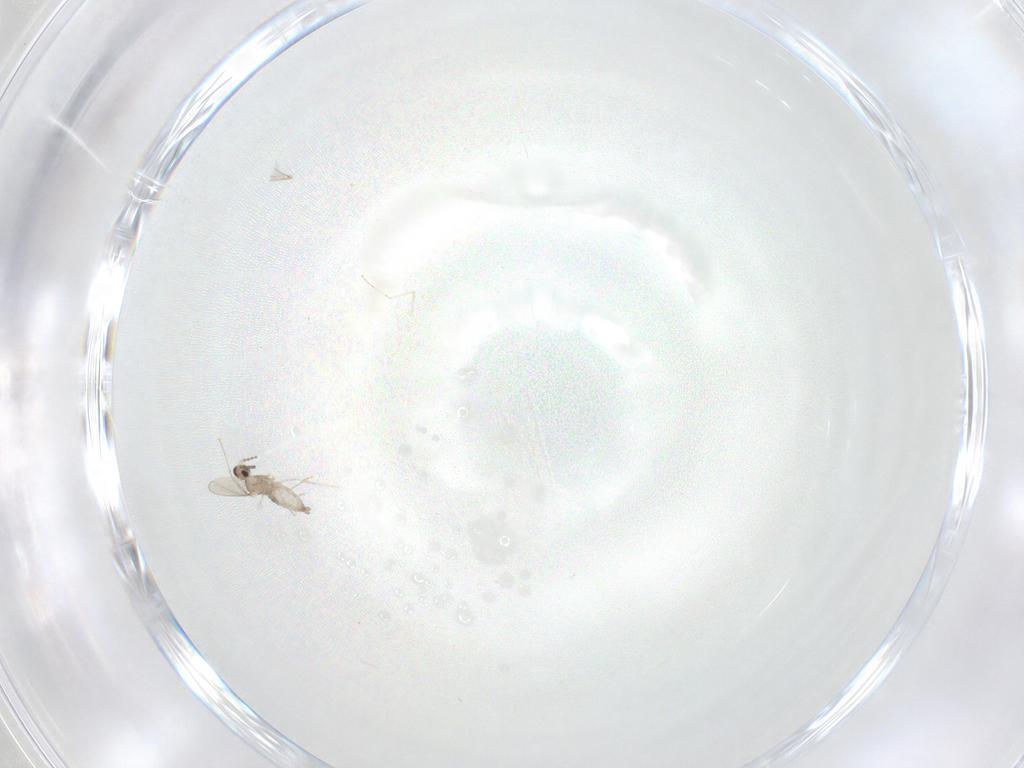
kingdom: Animalia
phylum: Arthropoda
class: Insecta
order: Diptera
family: Cecidomyiidae
